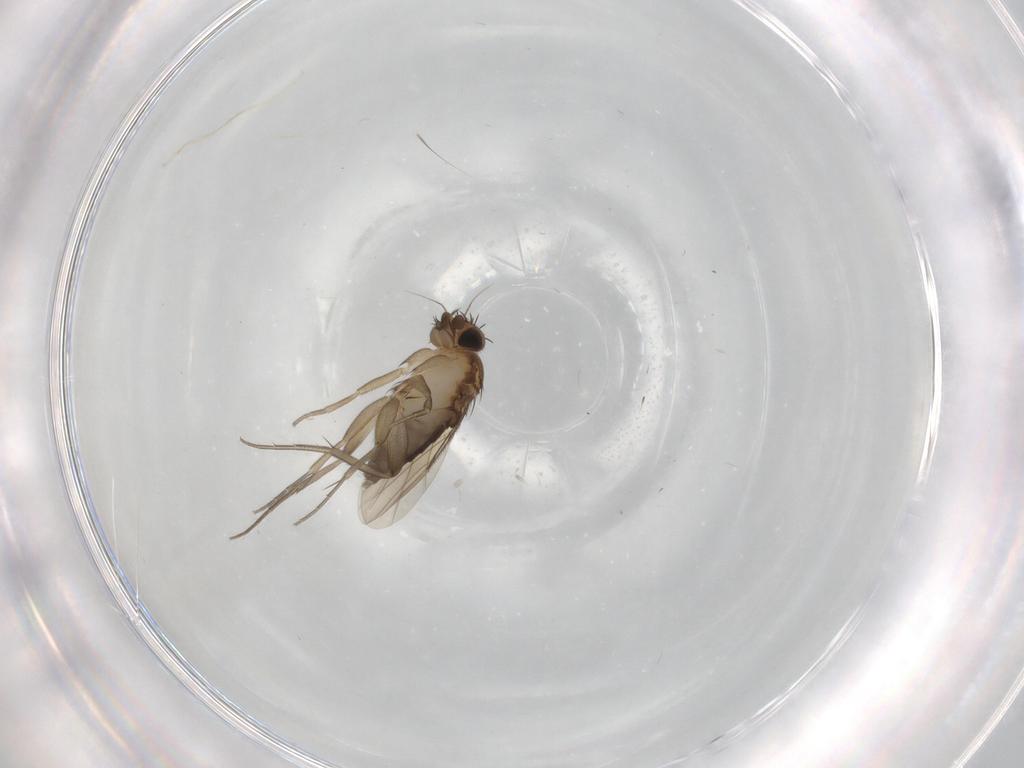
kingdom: Animalia
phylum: Arthropoda
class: Insecta
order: Diptera
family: Phoridae
